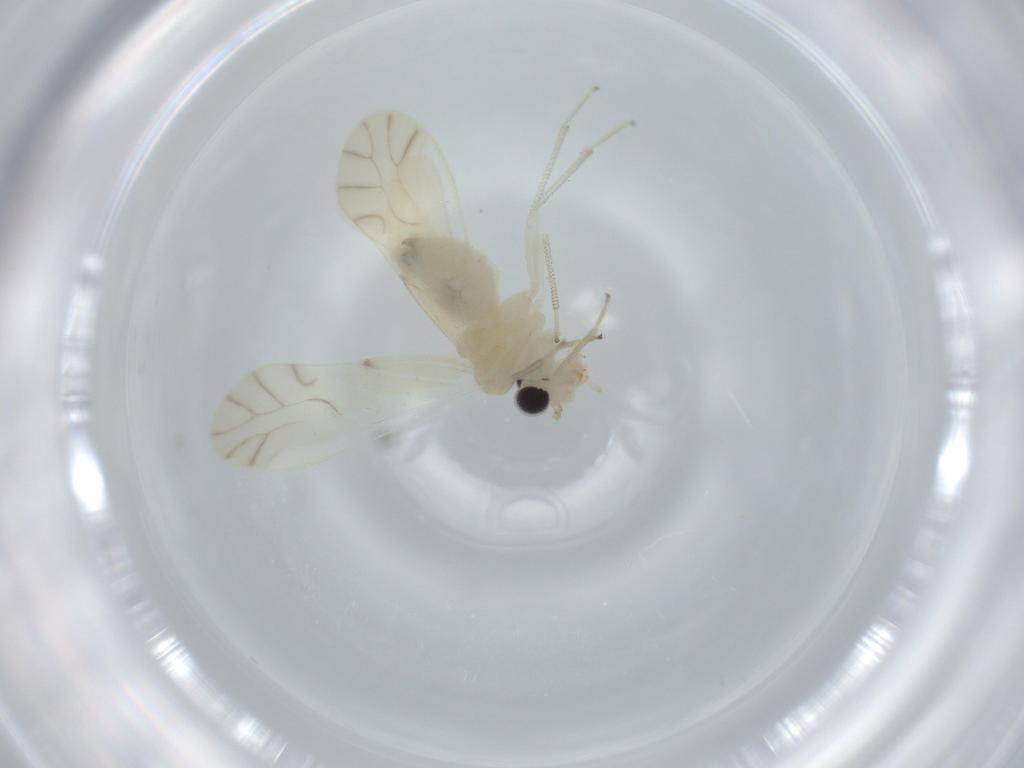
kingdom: Animalia
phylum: Arthropoda
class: Insecta
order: Psocodea
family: Caeciliusidae
